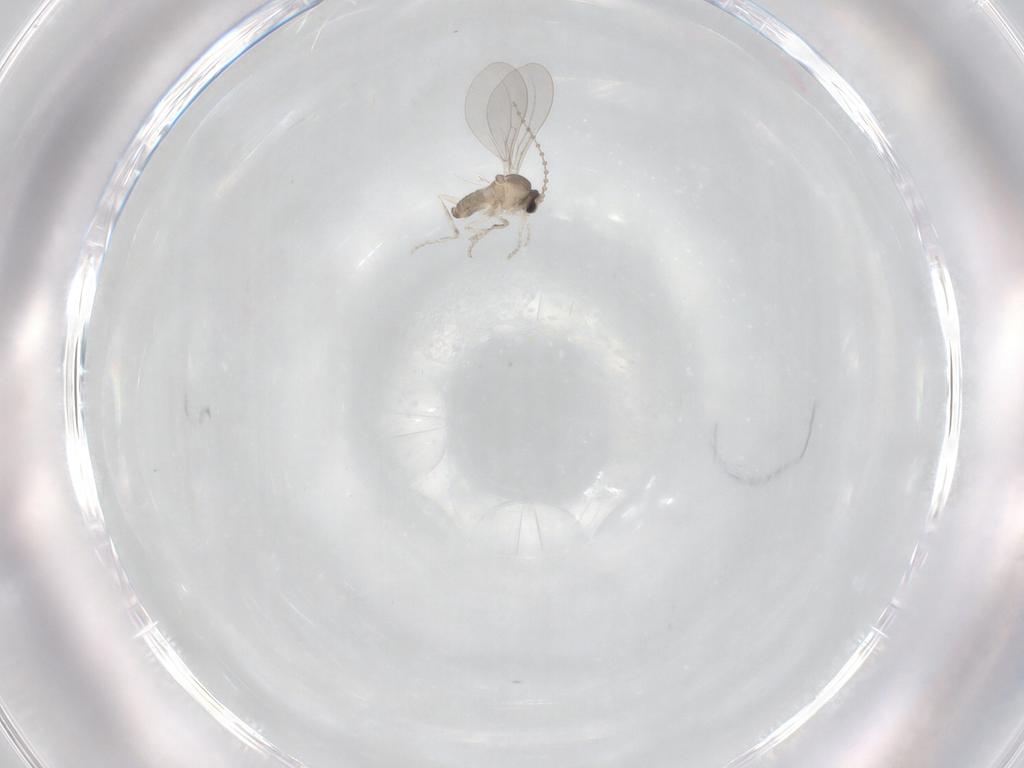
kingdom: Animalia
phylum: Arthropoda
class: Insecta
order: Diptera
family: Cecidomyiidae
